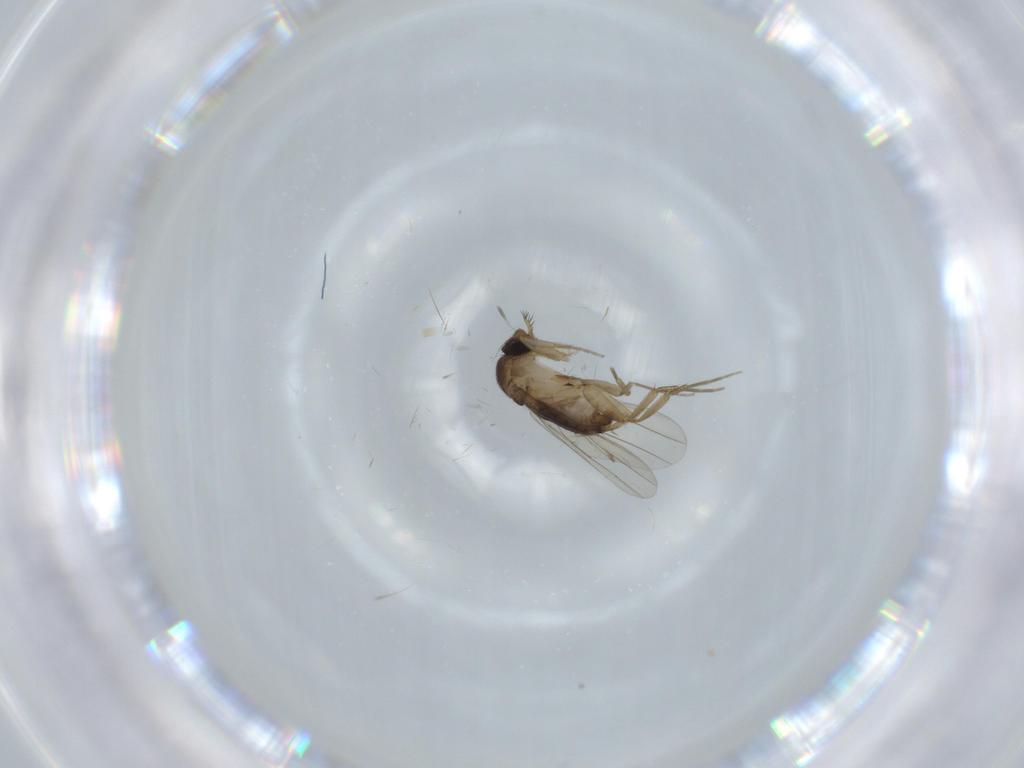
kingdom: Animalia
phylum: Arthropoda
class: Insecta
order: Diptera
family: Phoridae
